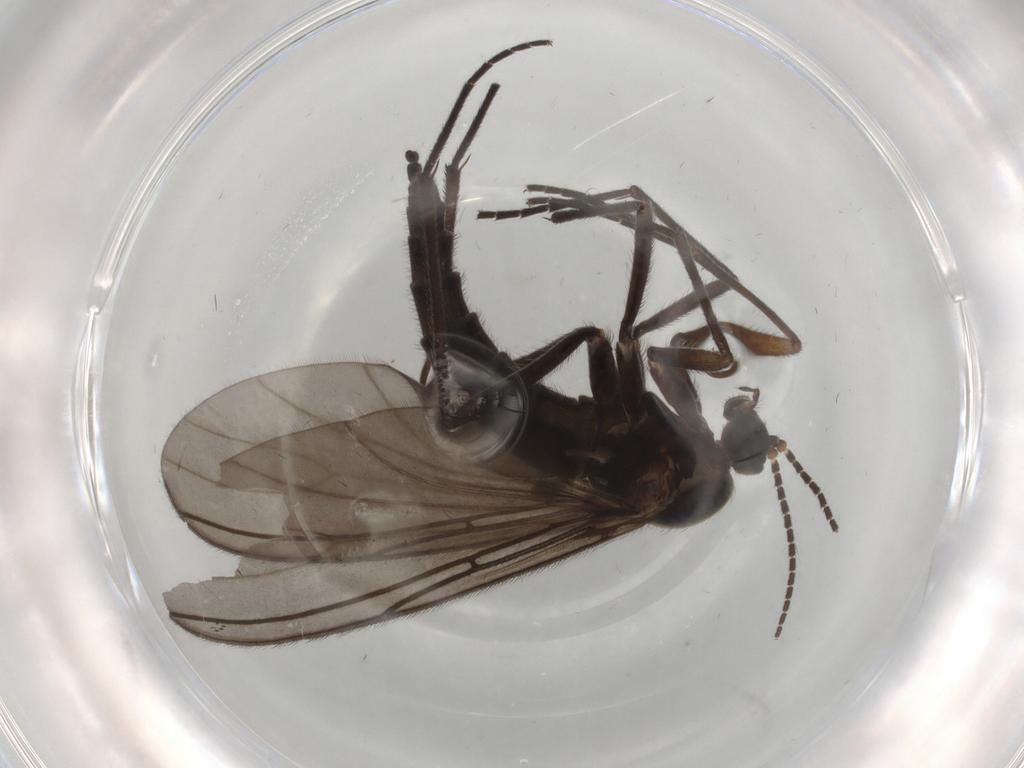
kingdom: Animalia
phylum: Arthropoda
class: Insecta
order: Diptera
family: Sciaridae
